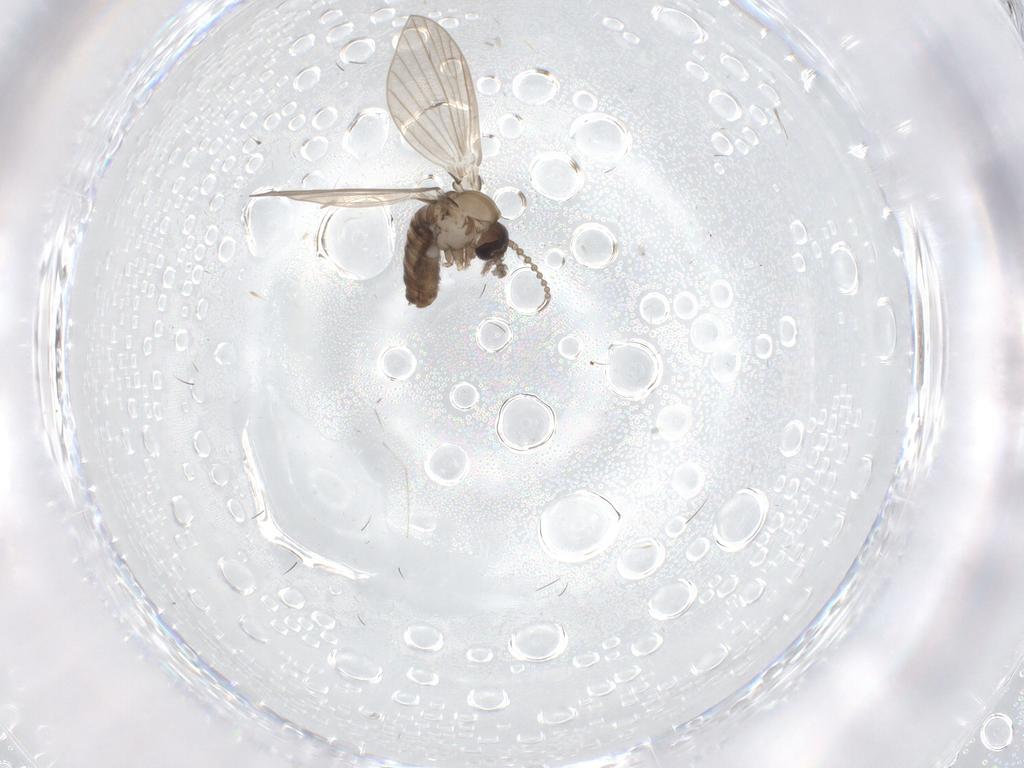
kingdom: Animalia
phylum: Arthropoda
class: Insecta
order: Diptera
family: Psychodidae
